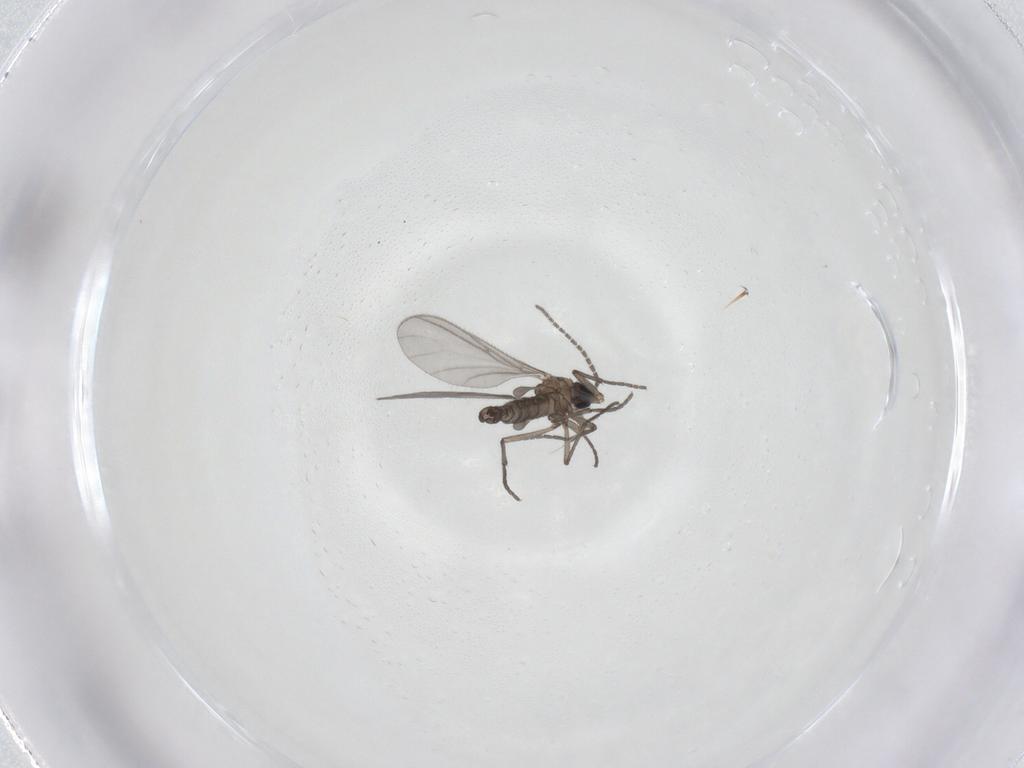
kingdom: Animalia
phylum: Arthropoda
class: Insecta
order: Diptera
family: Sciaridae
